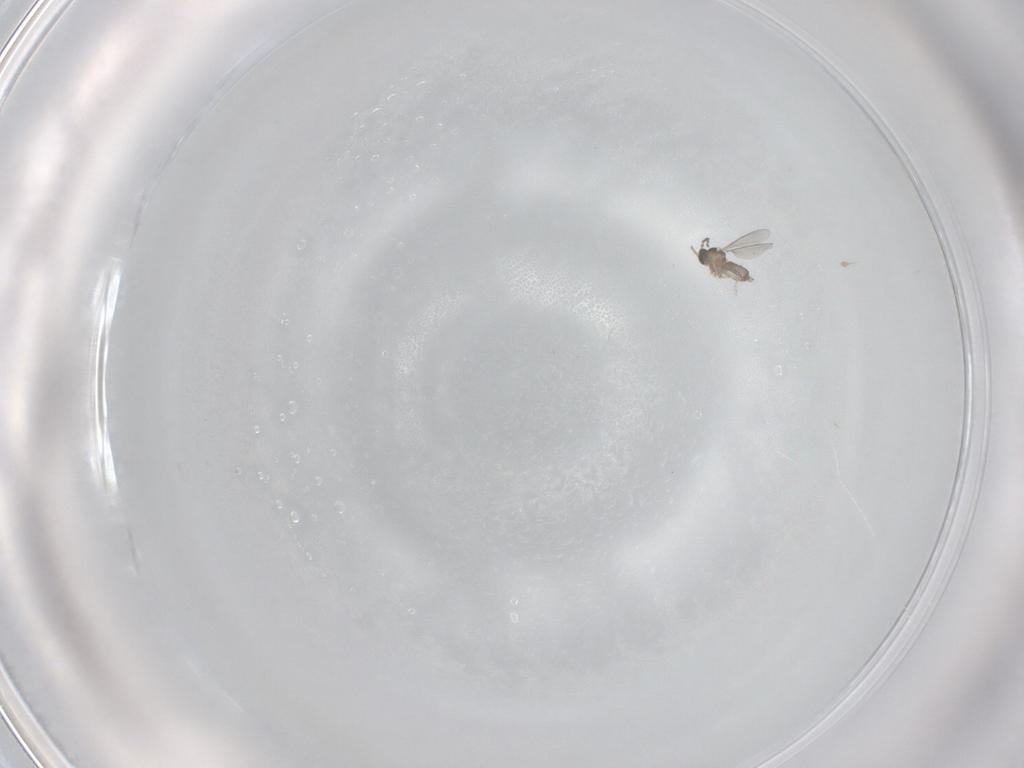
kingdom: Animalia
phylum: Arthropoda
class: Insecta
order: Diptera
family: Cecidomyiidae
